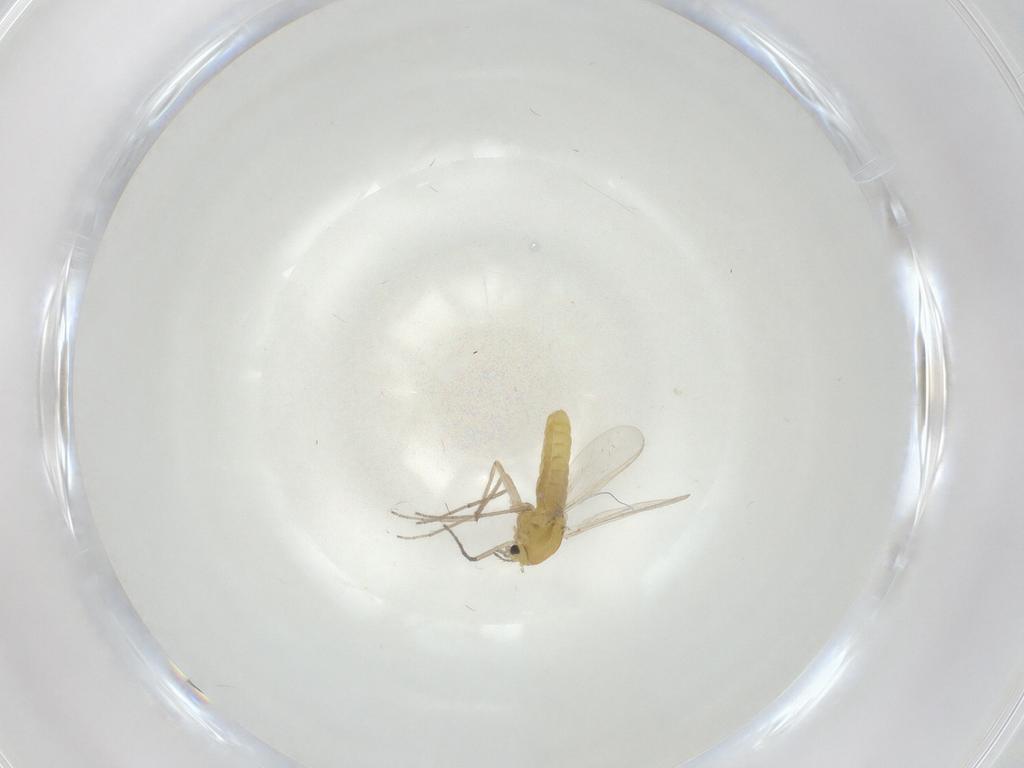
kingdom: Animalia
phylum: Arthropoda
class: Insecta
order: Diptera
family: Chironomidae
